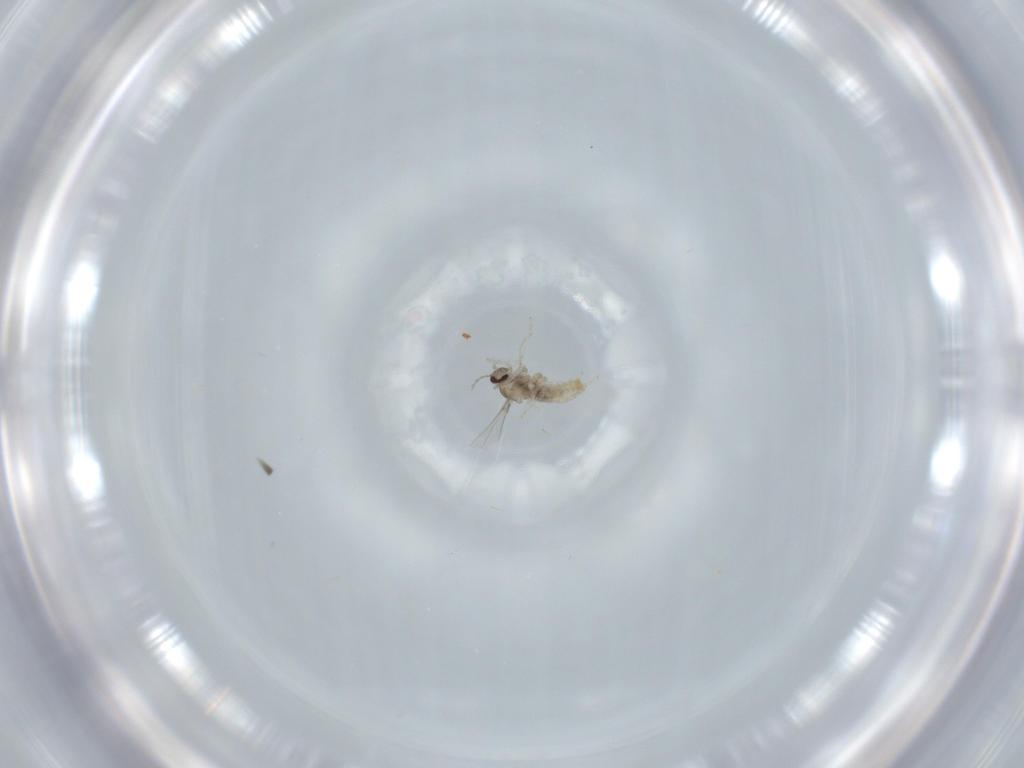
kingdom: Animalia
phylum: Arthropoda
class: Insecta
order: Diptera
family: Cecidomyiidae
